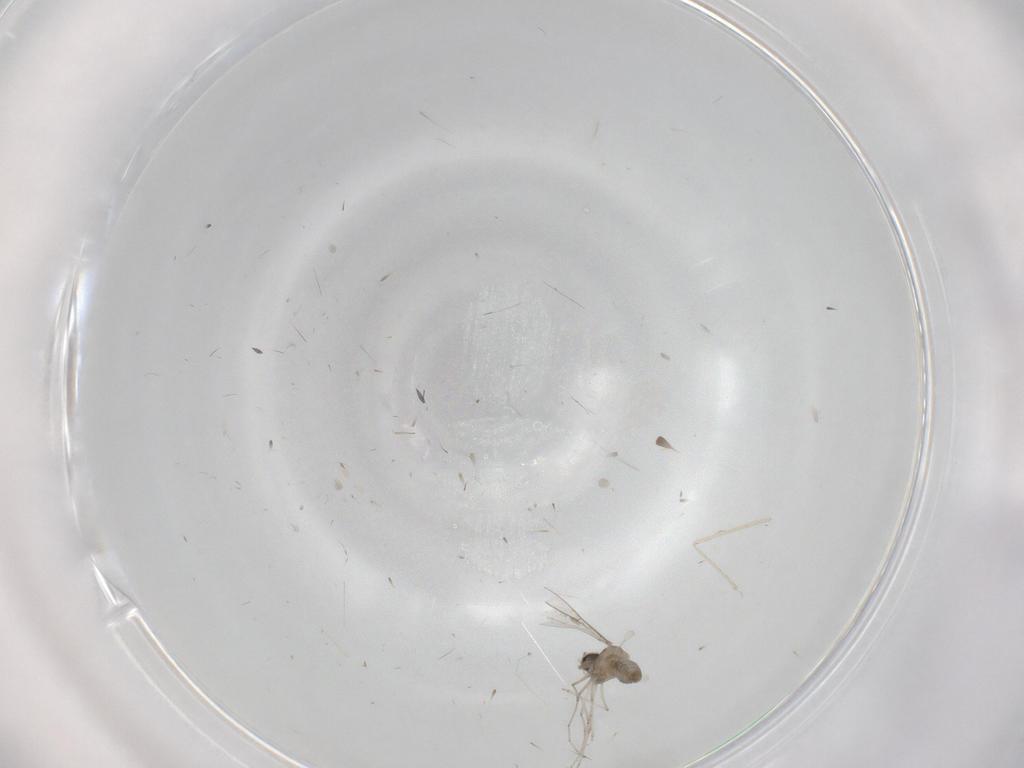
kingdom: Animalia
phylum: Arthropoda
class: Insecta
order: Diptera
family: Cecidomyiidae
